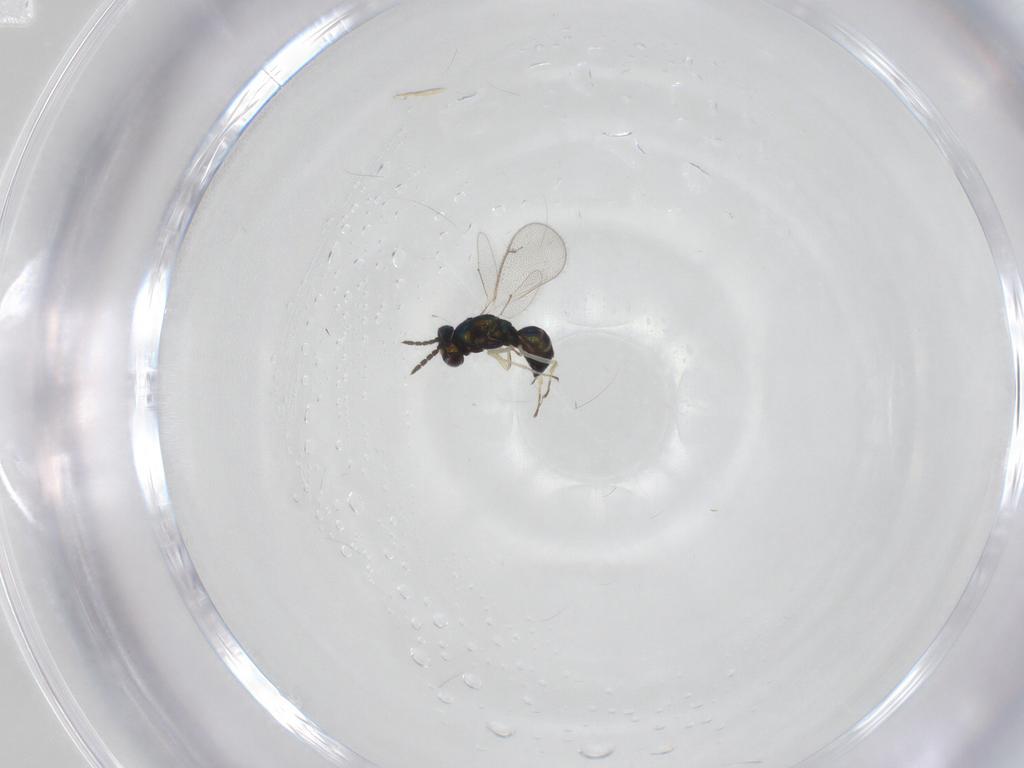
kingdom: Animalia
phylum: Arthropoda
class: Insecta
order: Hymenoptera
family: Eulophidae
